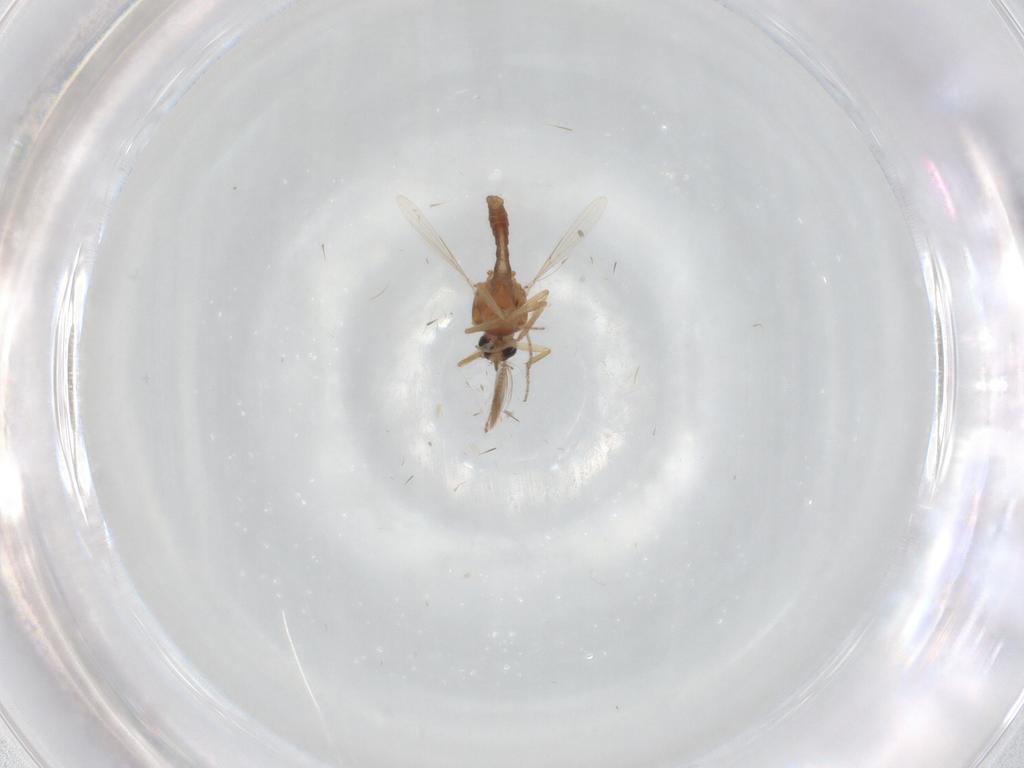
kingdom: Animalia
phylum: Arthropoda
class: Insecta
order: Diptera
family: Ceratopogonidae
